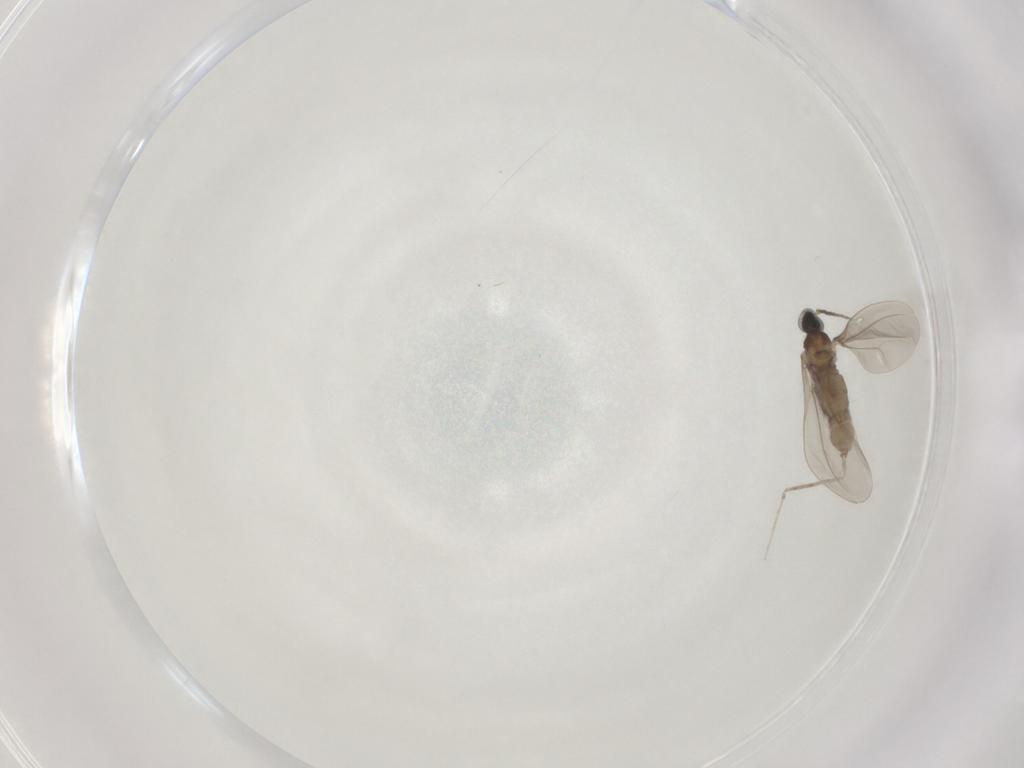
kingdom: Animalia
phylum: Arthropoda
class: Insecta
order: Diptera
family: Cecidomyiidae
